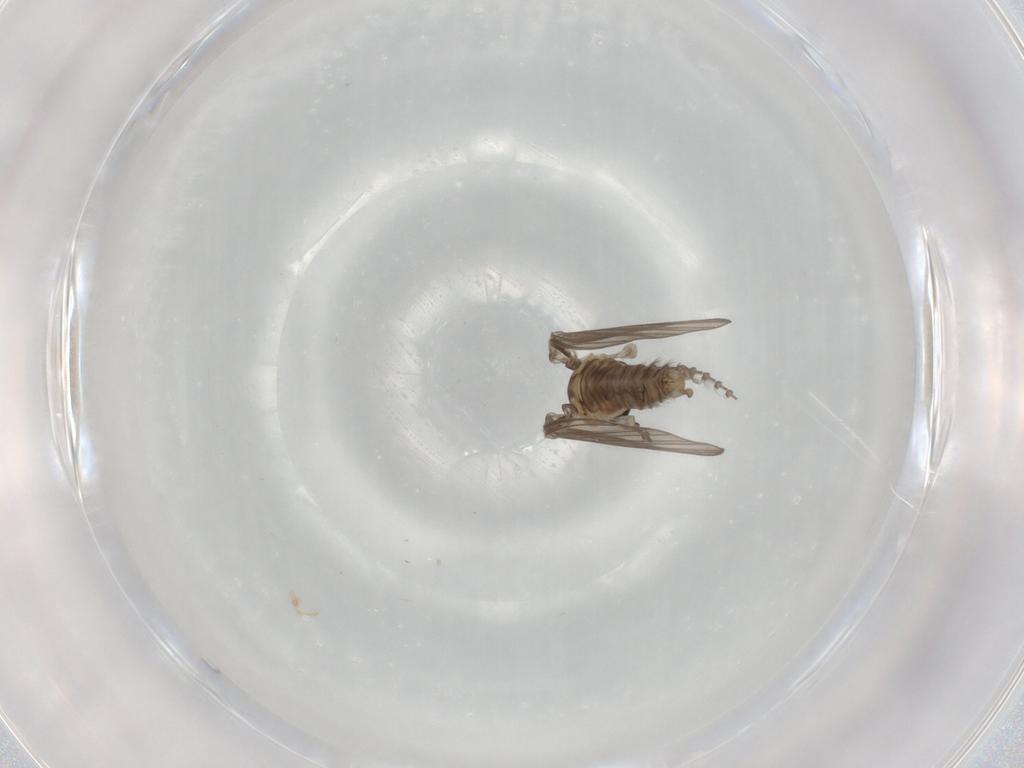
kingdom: Animalia
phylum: Arthropoda
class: Insecta
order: Diptera
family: Chironomidae
